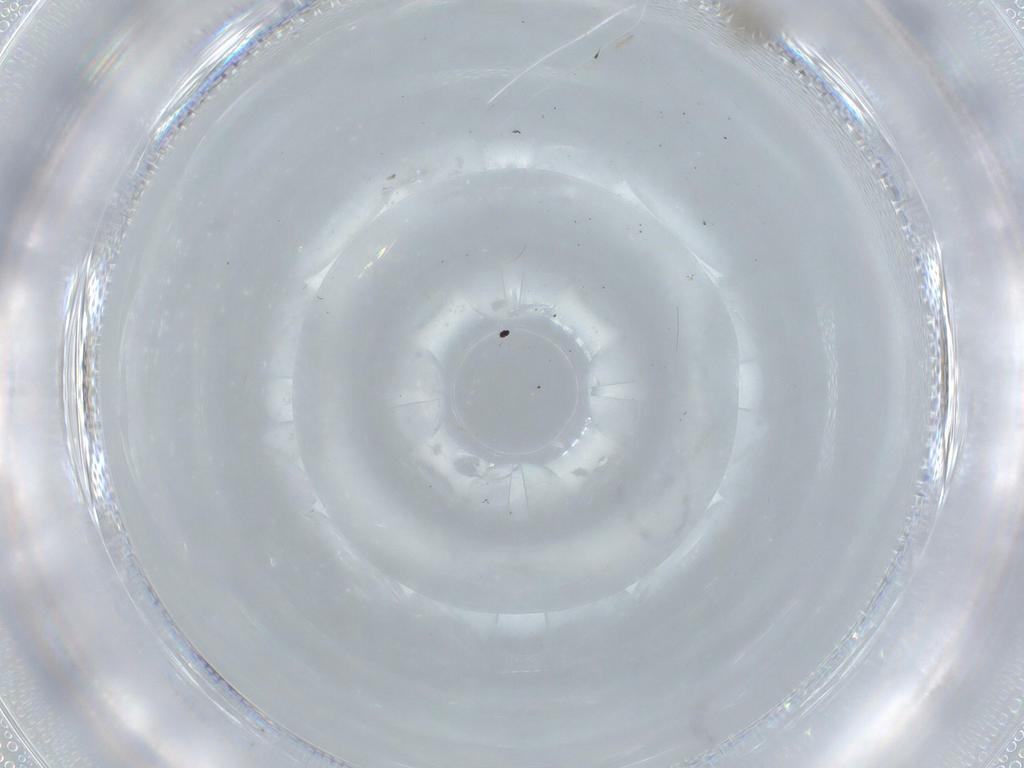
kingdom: Animalia
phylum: Arthropoda
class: Insecta
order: Diptera
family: Cecidomyiidae
